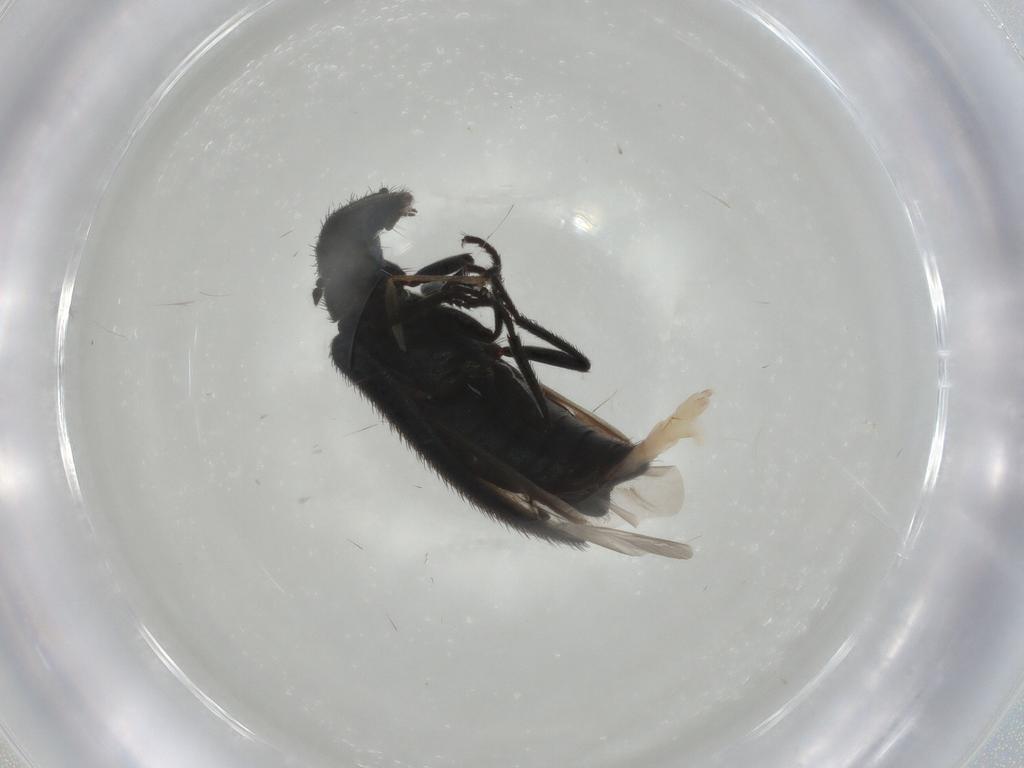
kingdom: Animalia
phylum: Arthropoda
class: Insecta
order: Coleoptera
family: Melyridae
